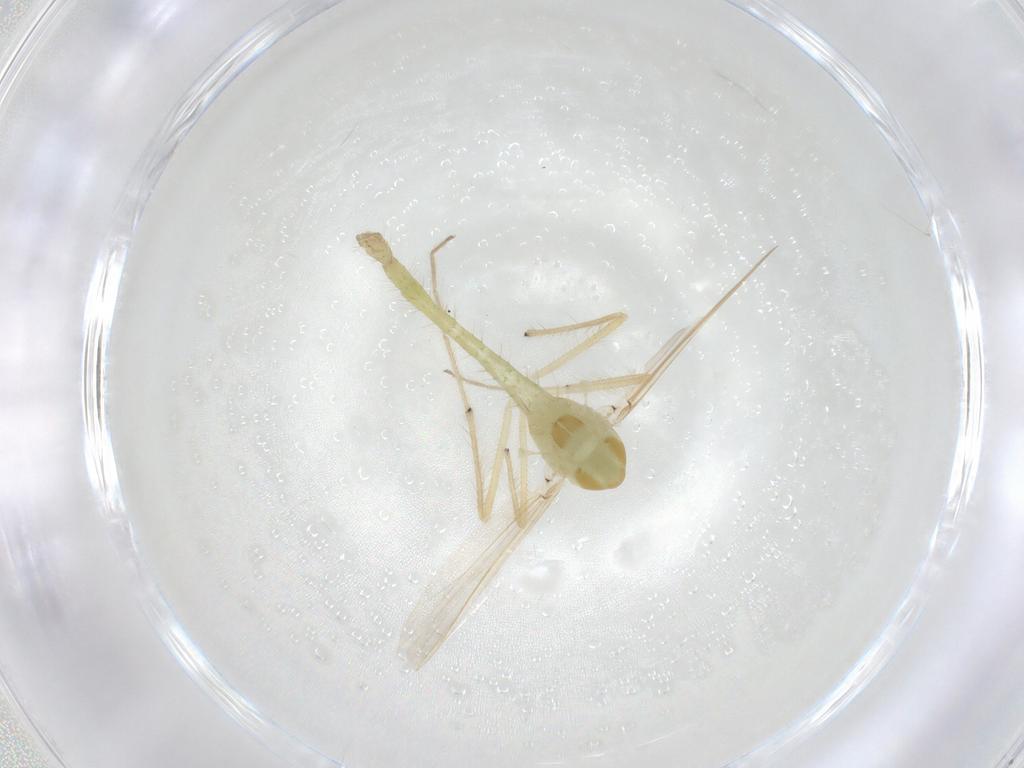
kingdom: Animalia
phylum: Arthropoda
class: Insecta
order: Diptera
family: Chironomidae
